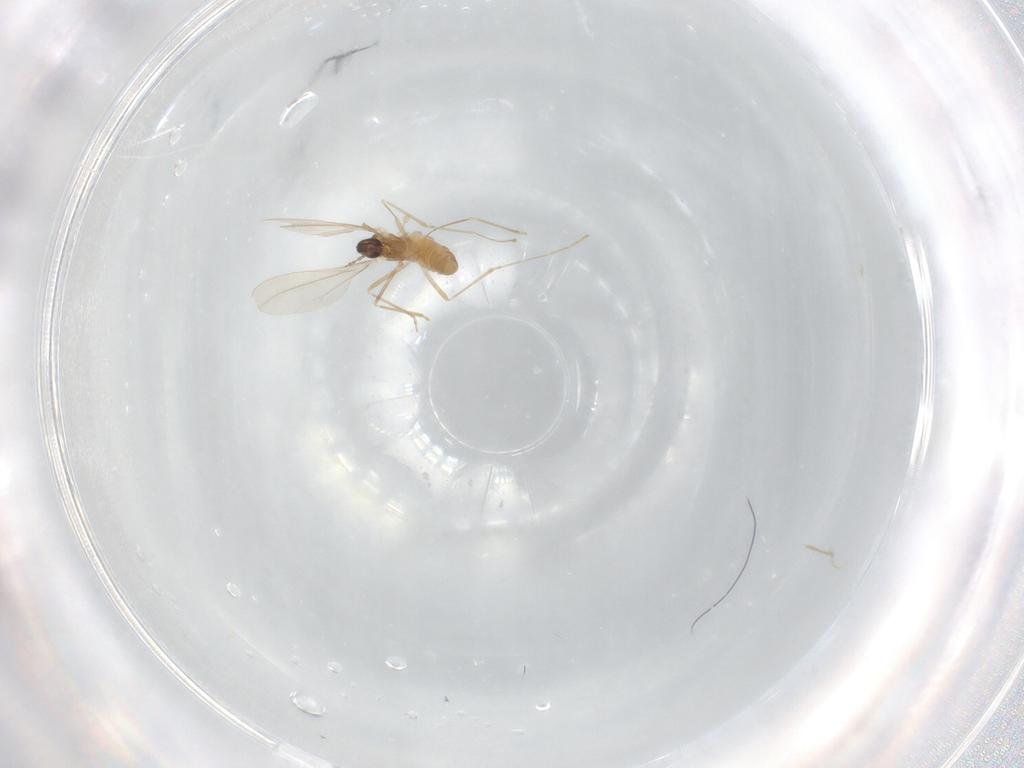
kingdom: Animalia
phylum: Arthropoda
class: Insecta
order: Diptera
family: Cecidomyiidae
